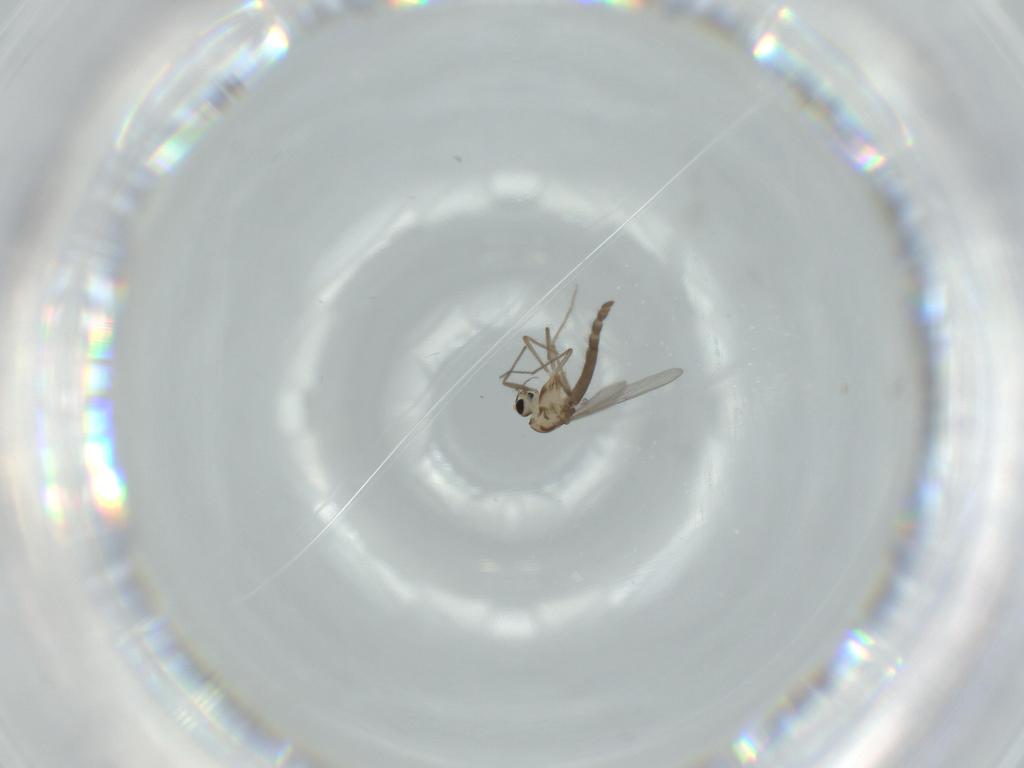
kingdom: Animalia
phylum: Arthropoda
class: Insecta
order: Diptera
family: Chironomidae
